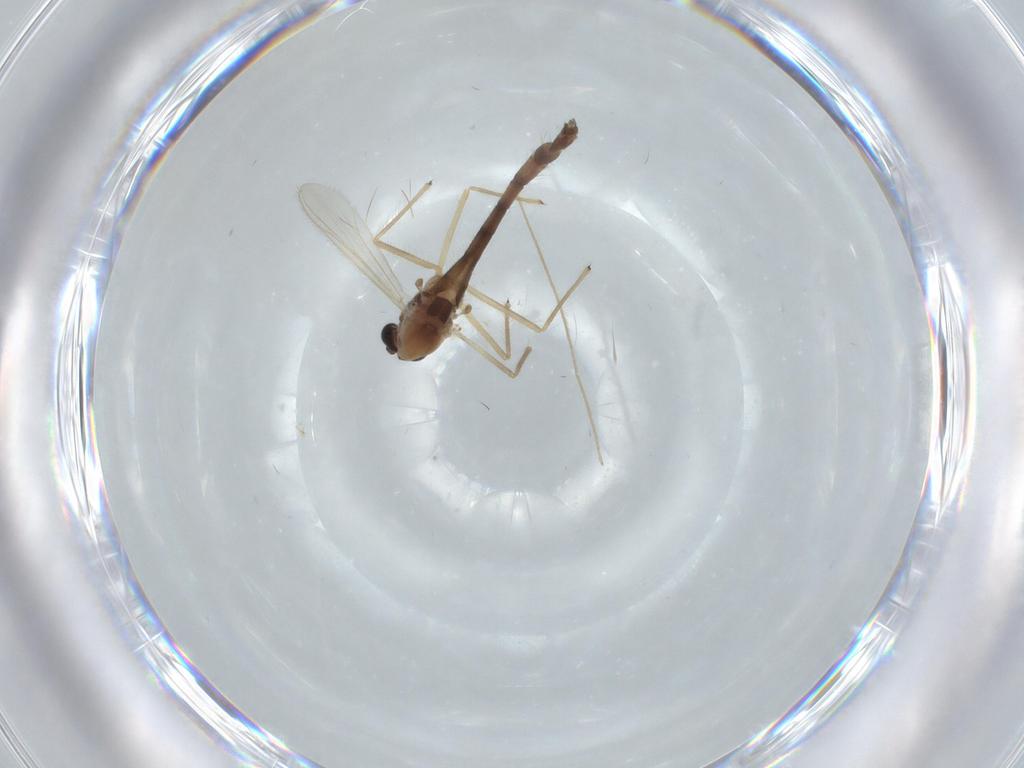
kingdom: Animalia
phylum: Arthropoda
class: Insecta
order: Diptera
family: Chironomidae
